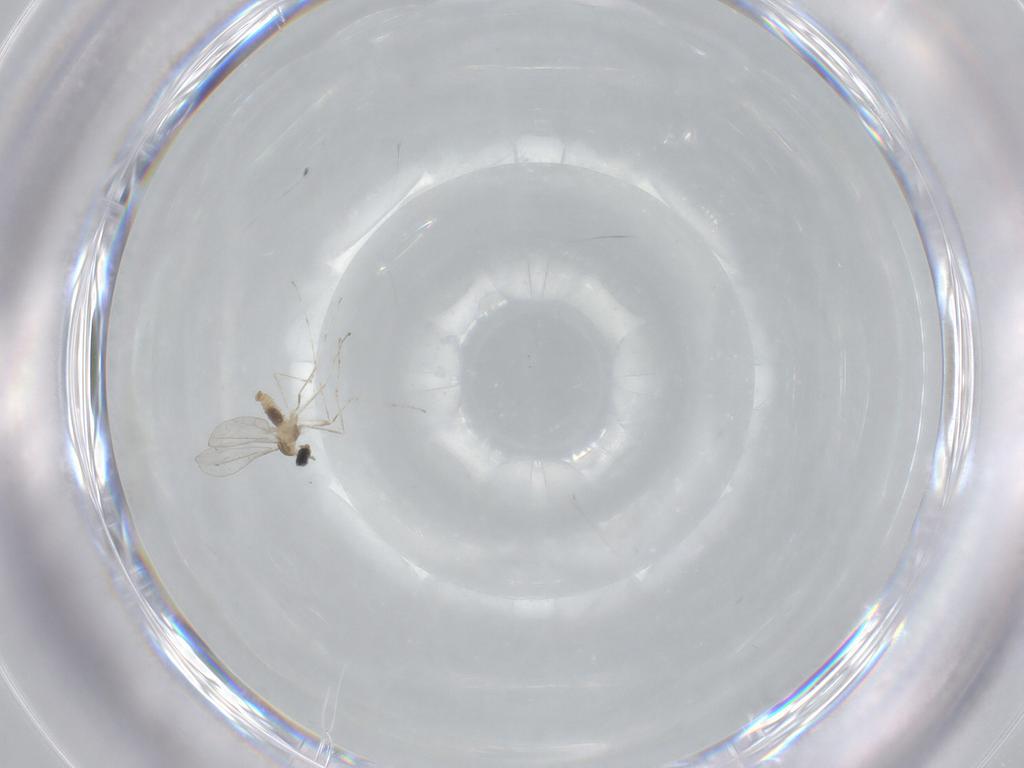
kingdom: Animalia
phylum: Arthropoda
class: Insecta
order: Diptera
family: Cecidomyiidae
